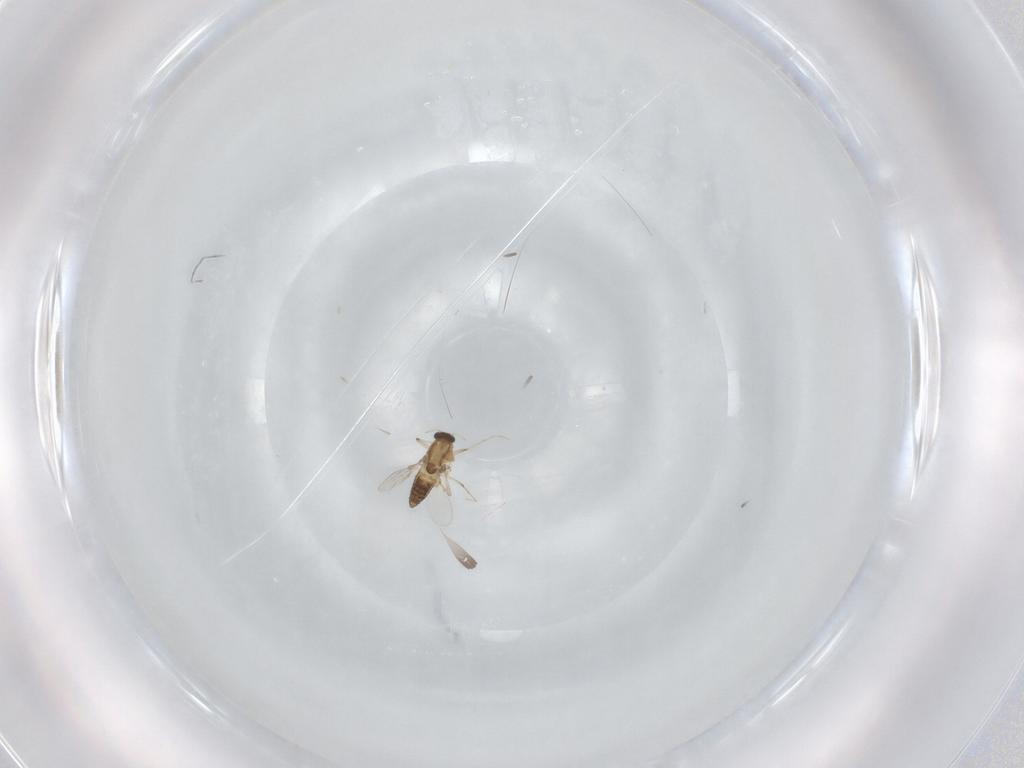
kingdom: Animalia
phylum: Arthropoda
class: Insecta
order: Diptera
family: Chironomidae
